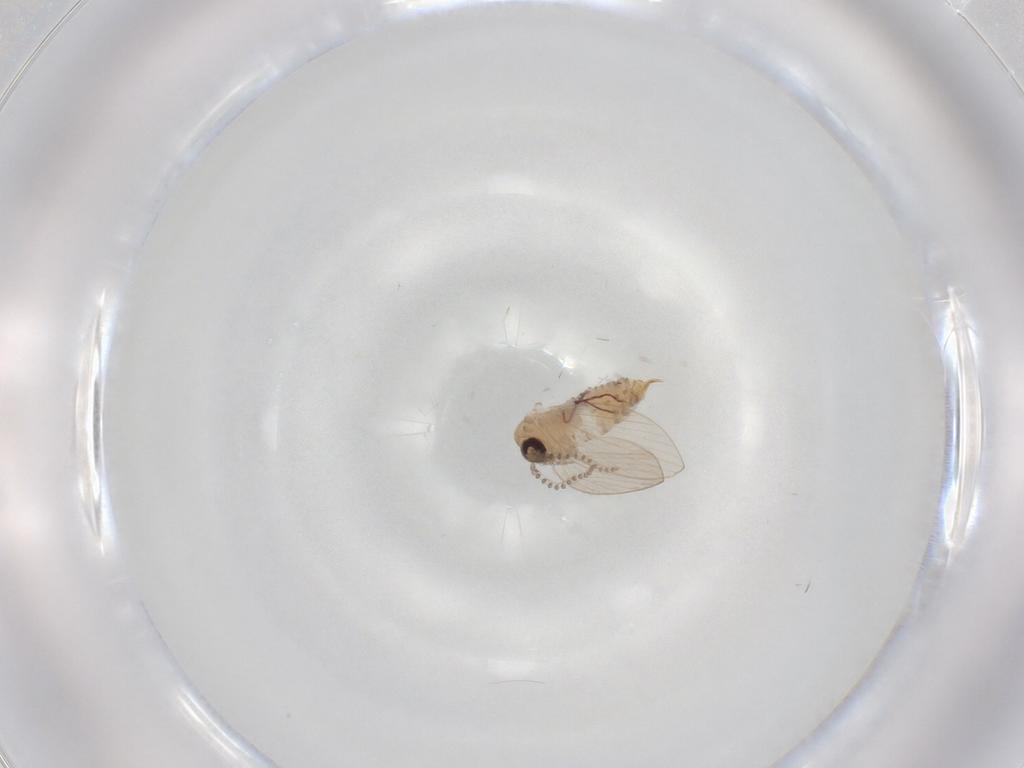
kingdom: Animalia
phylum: Arthropoda
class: Insecta
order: Diptera
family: Psychodidae
